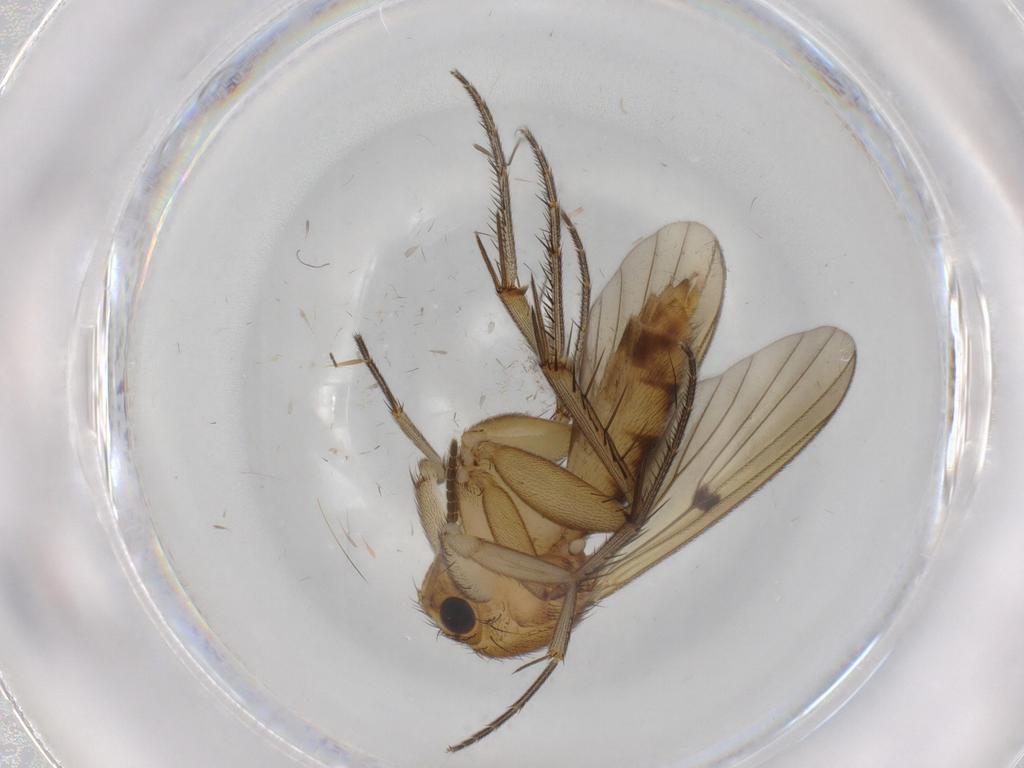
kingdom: Animalia
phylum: Arthropoda
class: Insecta
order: Diptera
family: Mycetophilidae
